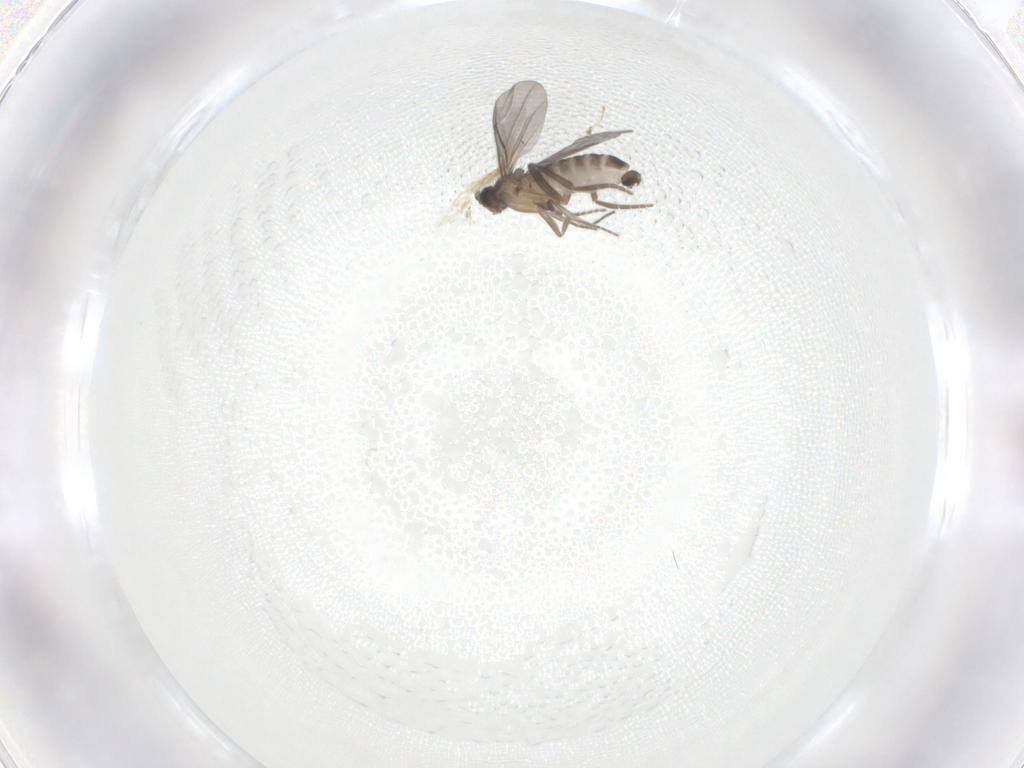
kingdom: Animalia
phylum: Arthropoda
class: Insecta
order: Diptera
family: Phoridae
